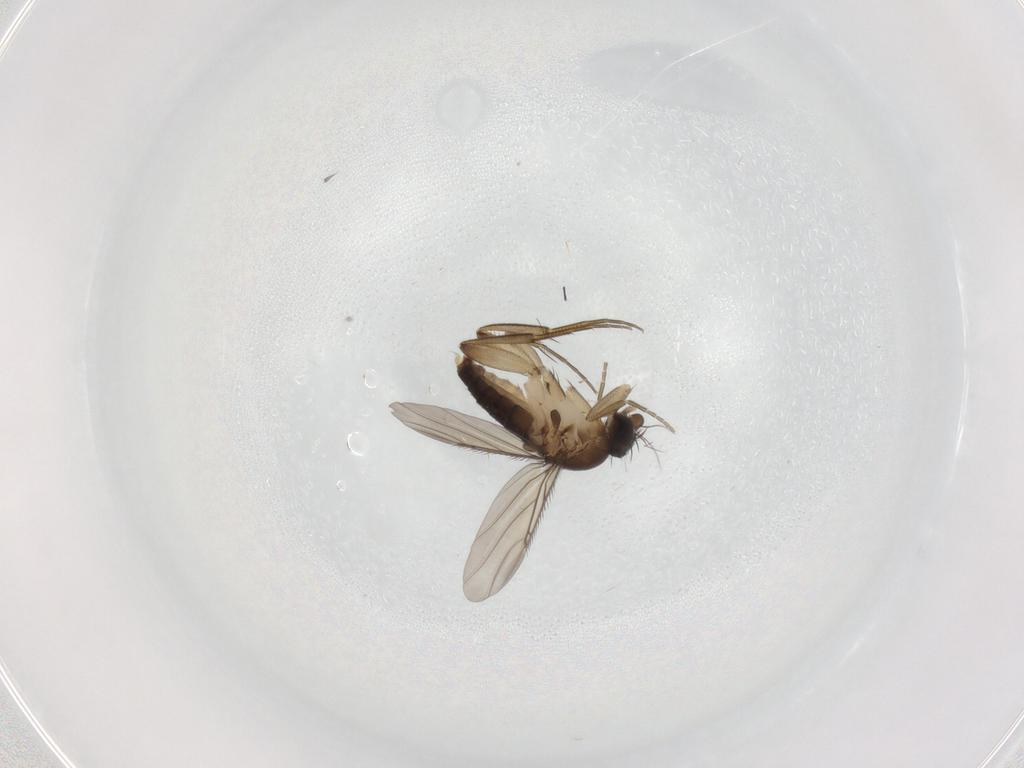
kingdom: Animalia
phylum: Arthropoda
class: Insecta
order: Diptera
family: Phoridae
